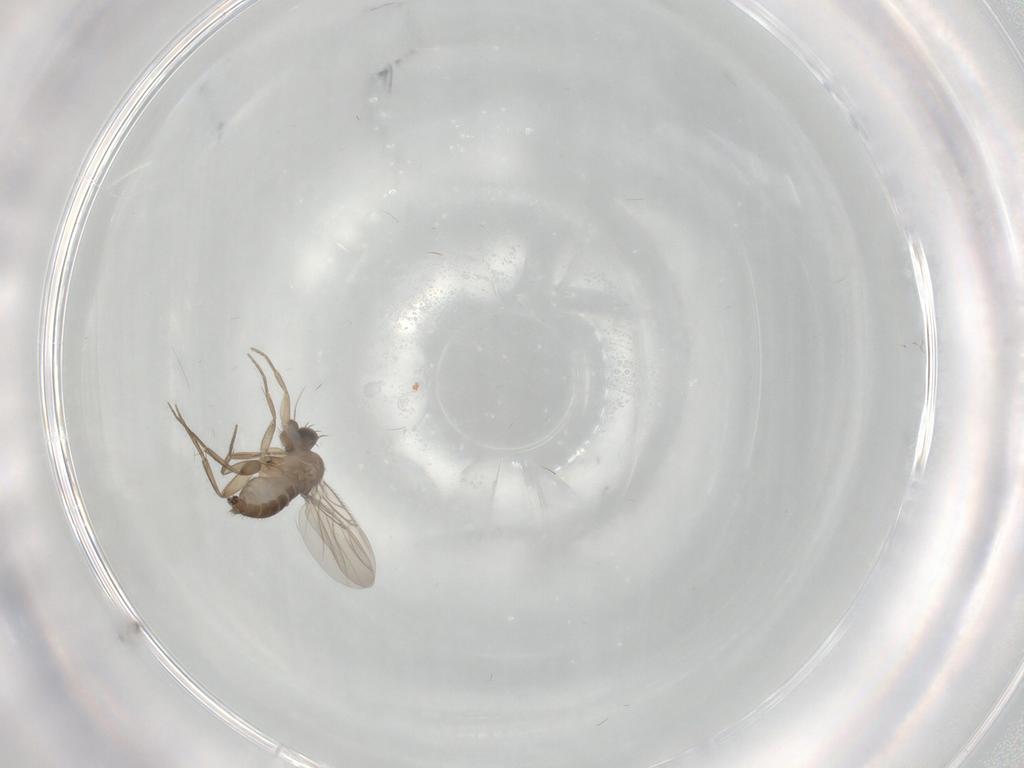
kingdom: Animalia
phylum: Arthropoda
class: Insecta
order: Diptera
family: Phoridae
